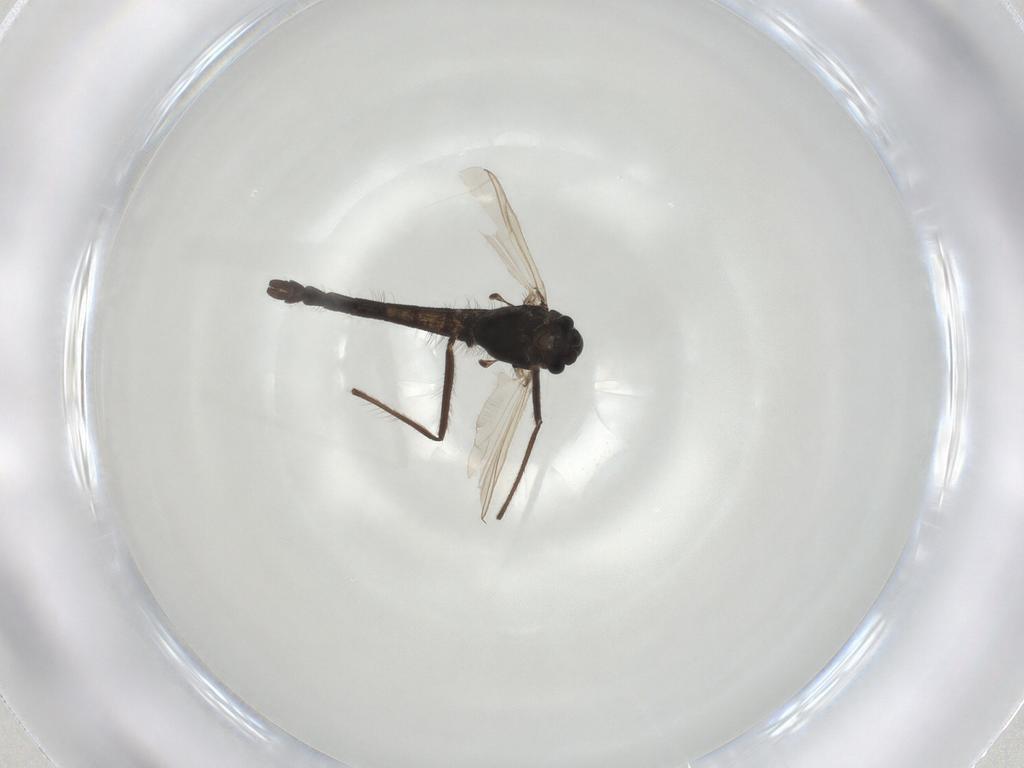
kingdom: Animalia
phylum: Arthropoda
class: Insecta
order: Diptera
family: Chironomidae
